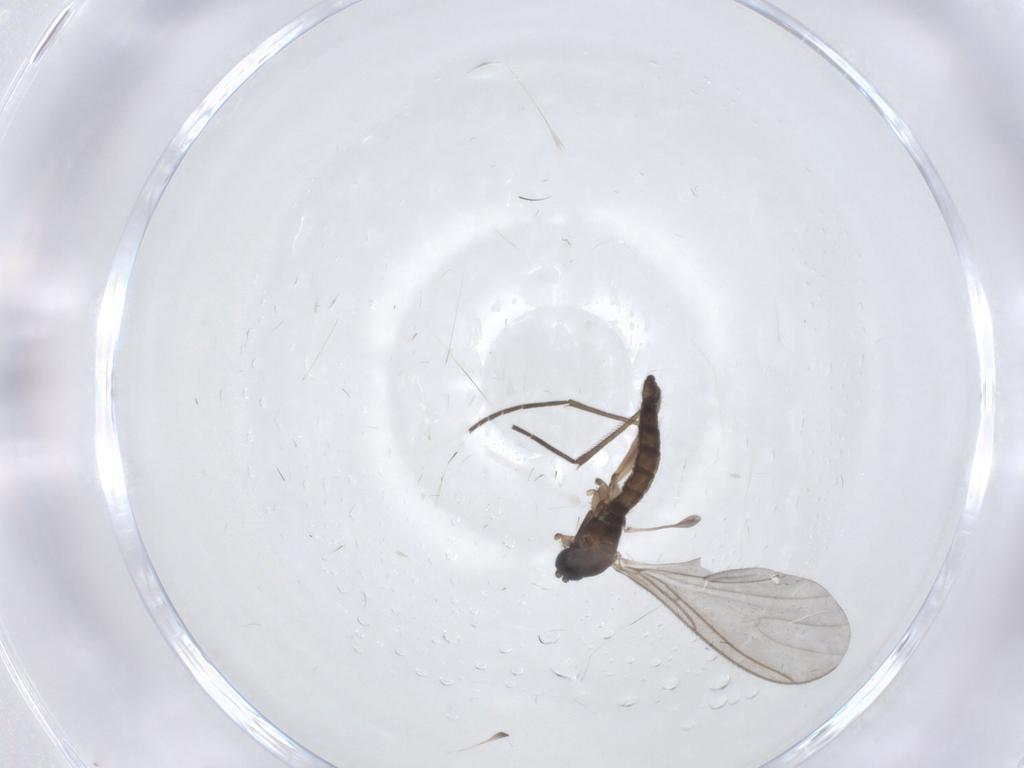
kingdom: Animalia
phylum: Arthropoda
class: Insecta
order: Diptera
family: Psychodidae
